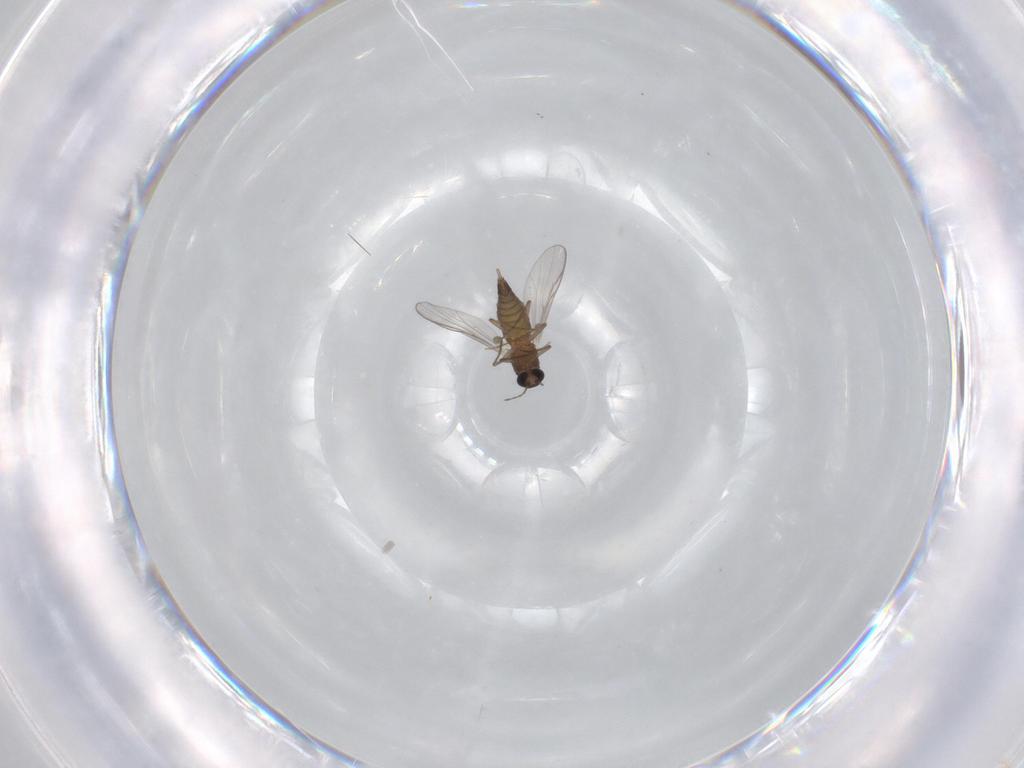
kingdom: Animalia
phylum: Arthropoda
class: Insecta
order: Diptera
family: Chironomidae
